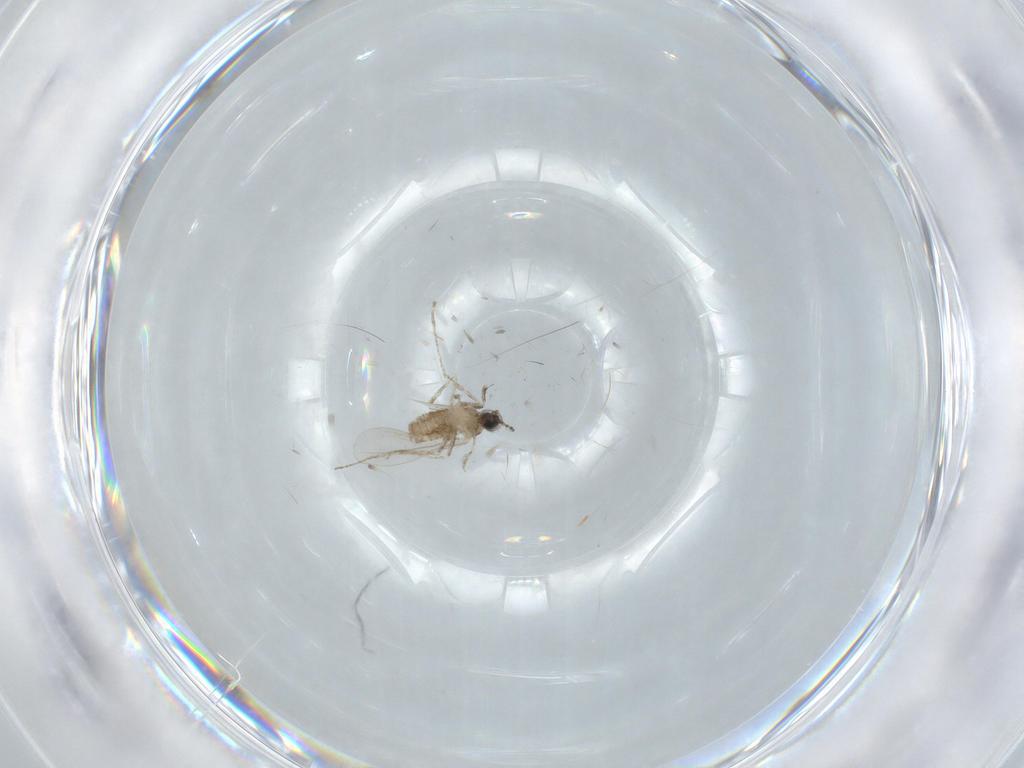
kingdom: Animalia
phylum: Arthropoda
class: Insecta
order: Diptera
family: Cecidomyiidae
